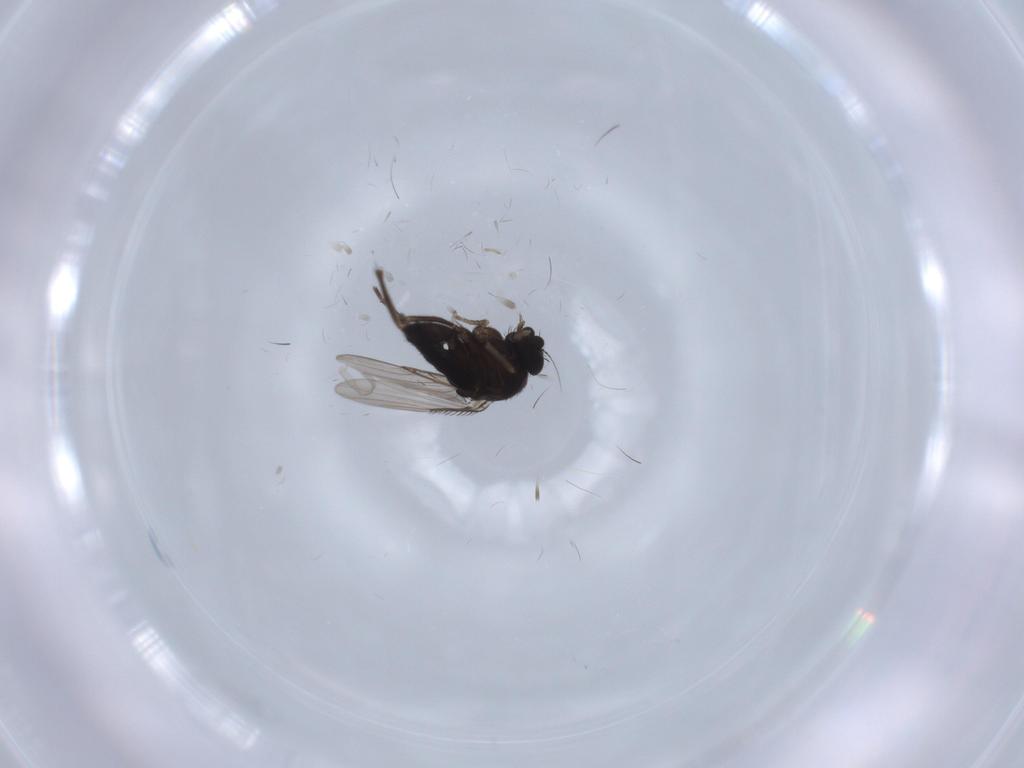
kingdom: Animalia
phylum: Arthropoda
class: Insecta
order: Diptera
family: Phoridae
